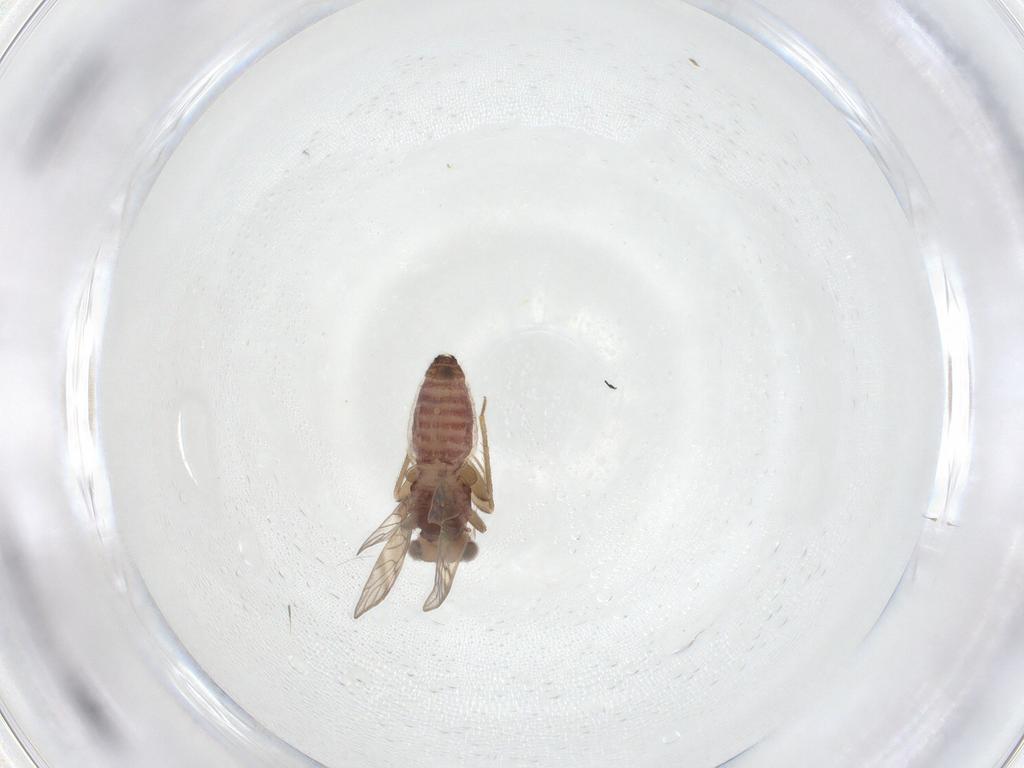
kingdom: Animalia
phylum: Arthropoda
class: Insecta
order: Psocodea
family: Lepidopsocidae
